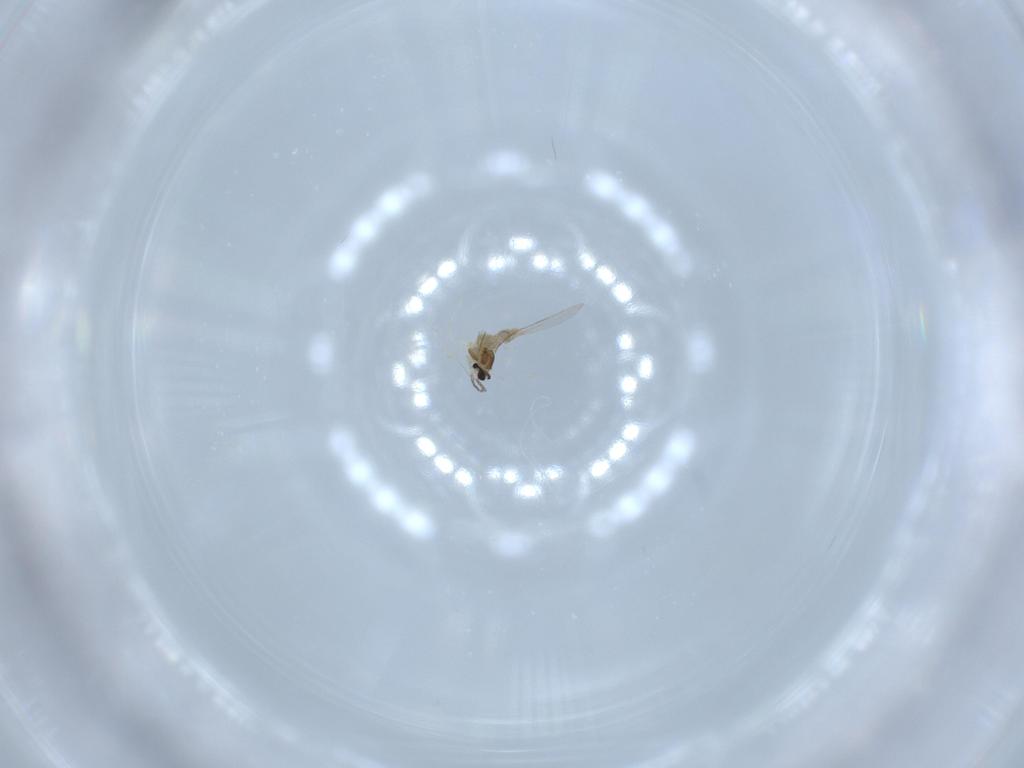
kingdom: Animalia
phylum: Arthropoda
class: Insecta
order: Diptera
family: Cecidomyiidae
